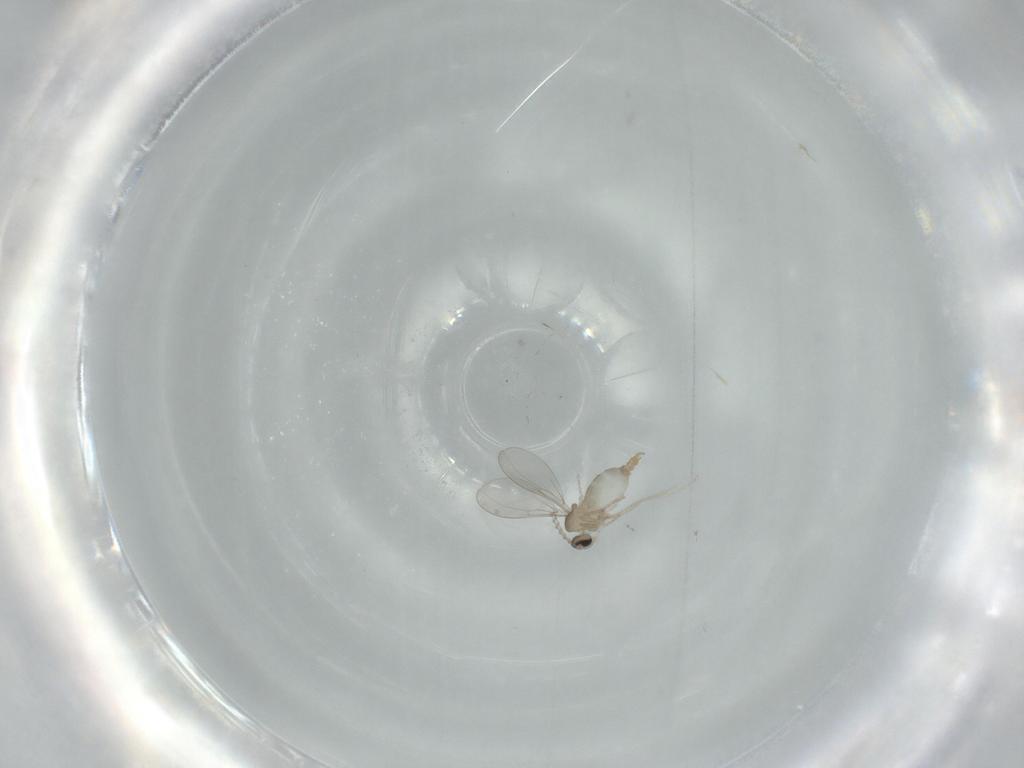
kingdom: Animalia
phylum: Arthropoda
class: Insecta
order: Diptera
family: Cecidomyiidae
